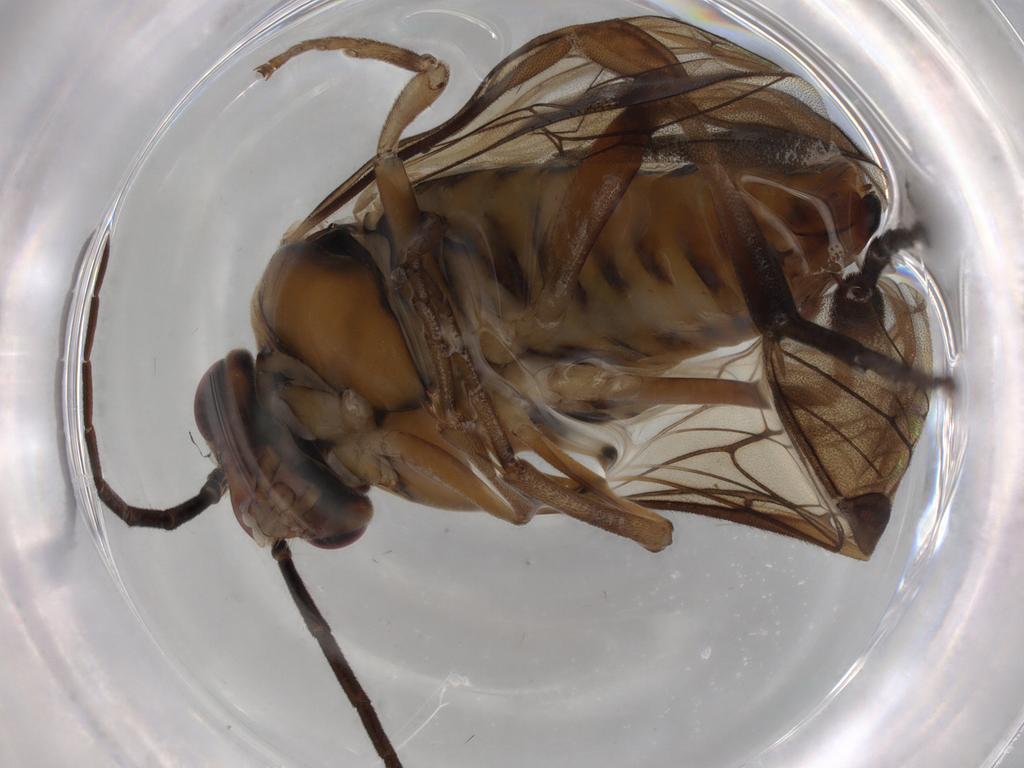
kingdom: Animalia
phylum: Arthropoda
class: Insecta
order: Hymenoptera
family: Tenthredinidae
